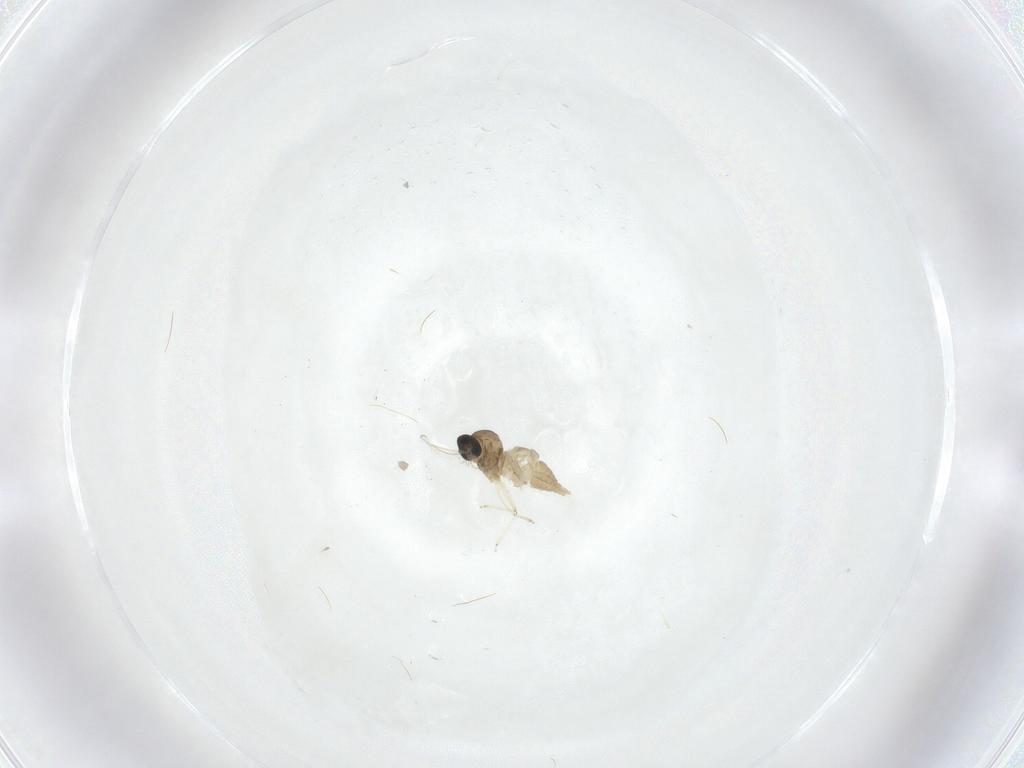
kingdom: Animalia
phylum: Arthropoda
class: Insecta
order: Diptera
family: Cecidomyiidae
